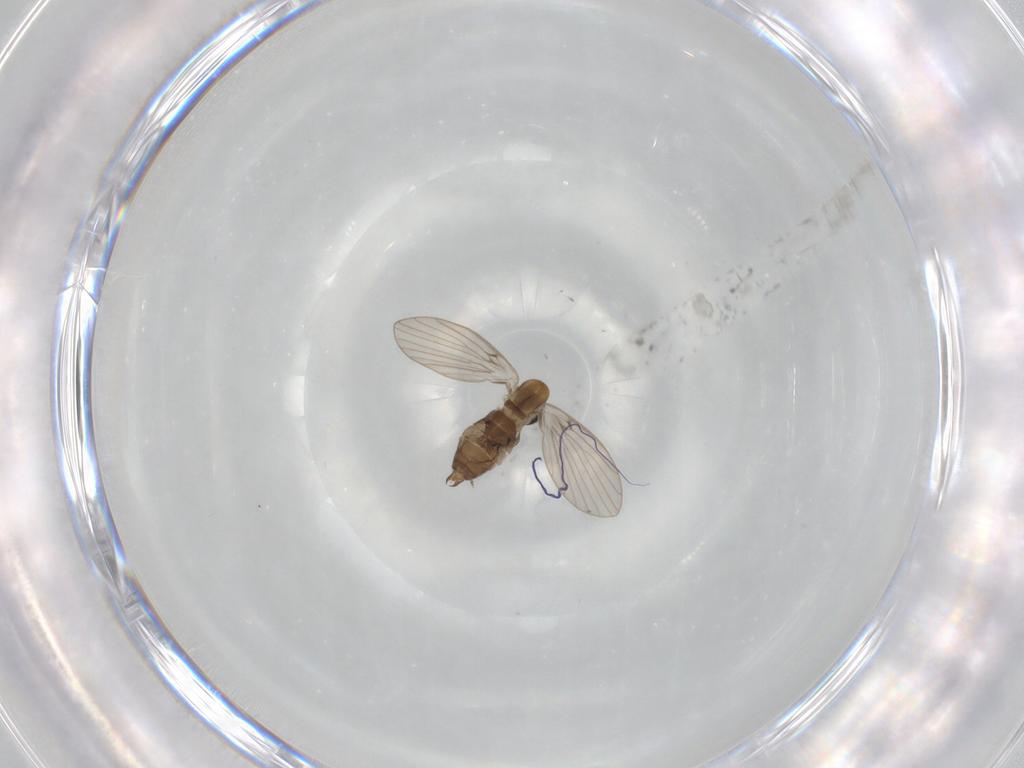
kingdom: Animalia
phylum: Arthropoda
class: Insecta
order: Diptera
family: Psychodidae
